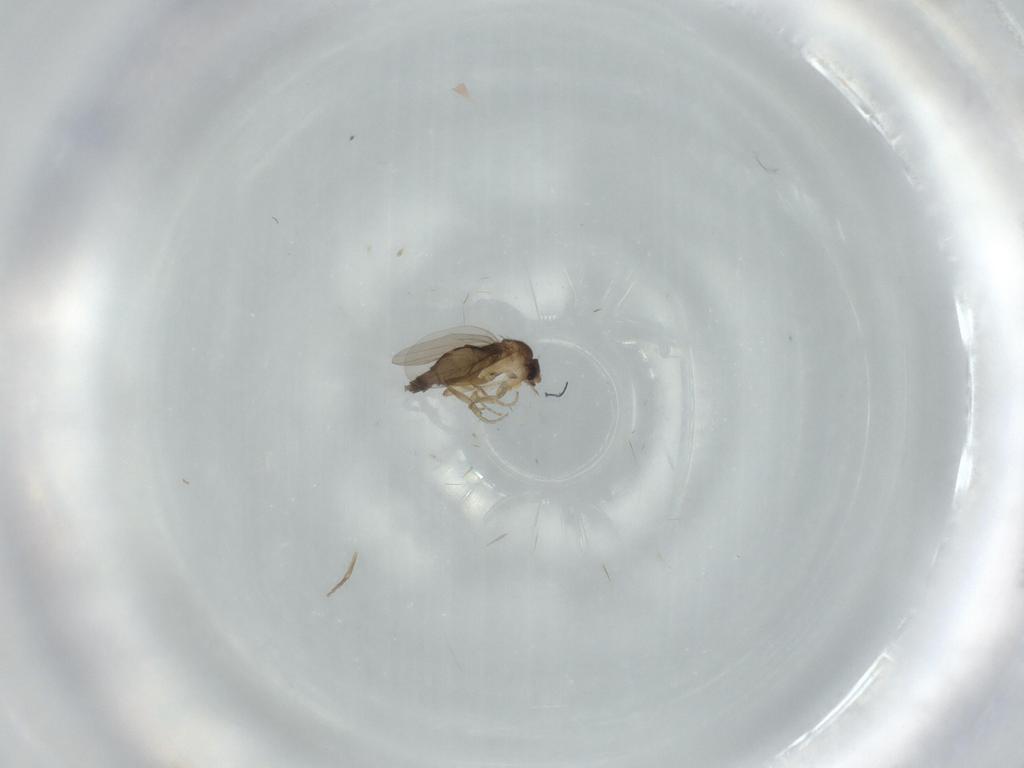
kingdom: Animalia
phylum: Arthropoda
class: Insecta
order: Diptera
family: Phoridae
